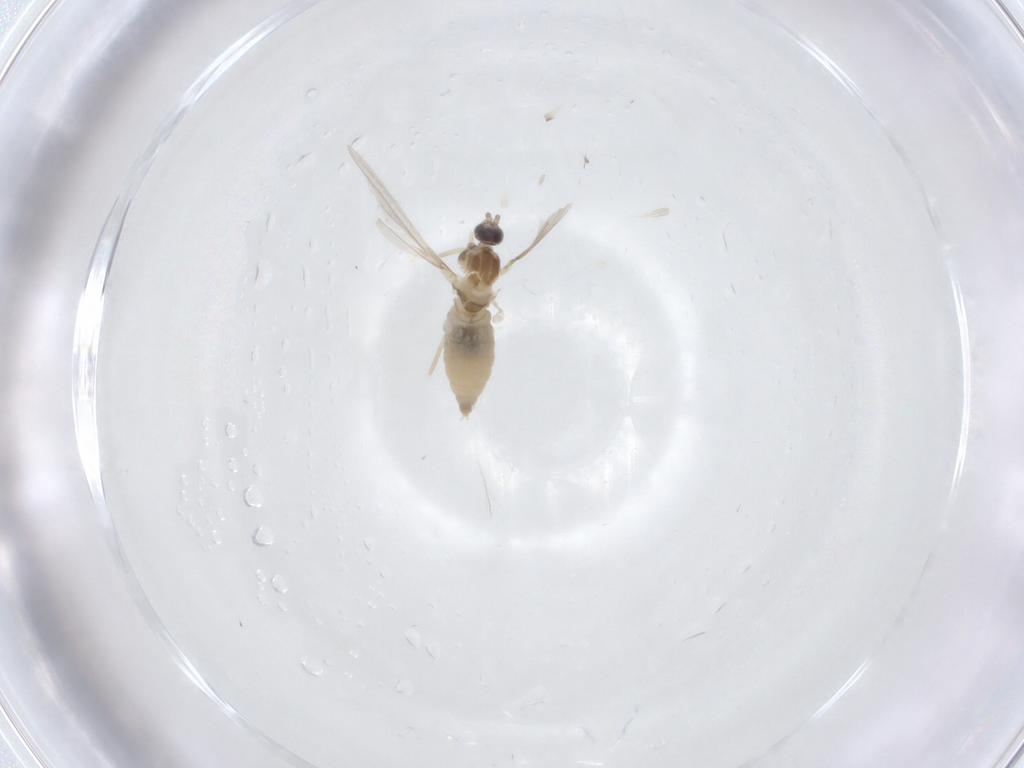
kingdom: Animalia
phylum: Arthropoda
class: Insecta
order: Diptera
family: Cecidomyiidae
